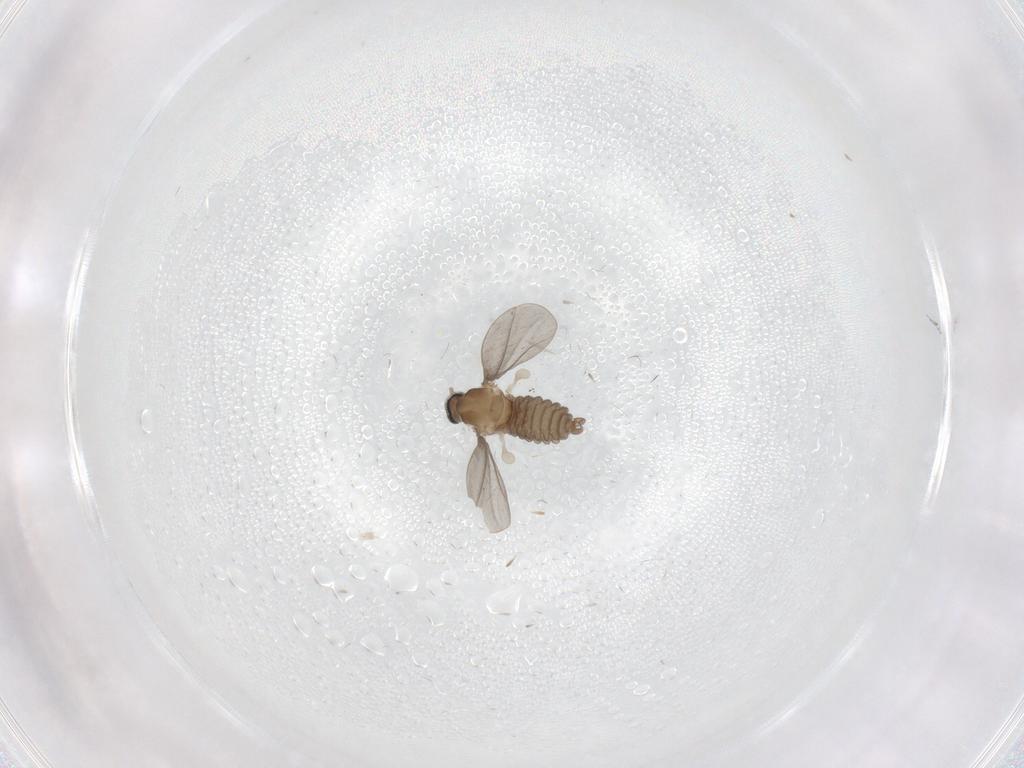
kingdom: Animalia
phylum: Arthropoda
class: Insecta
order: Diptera
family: Cecidomyiidae
